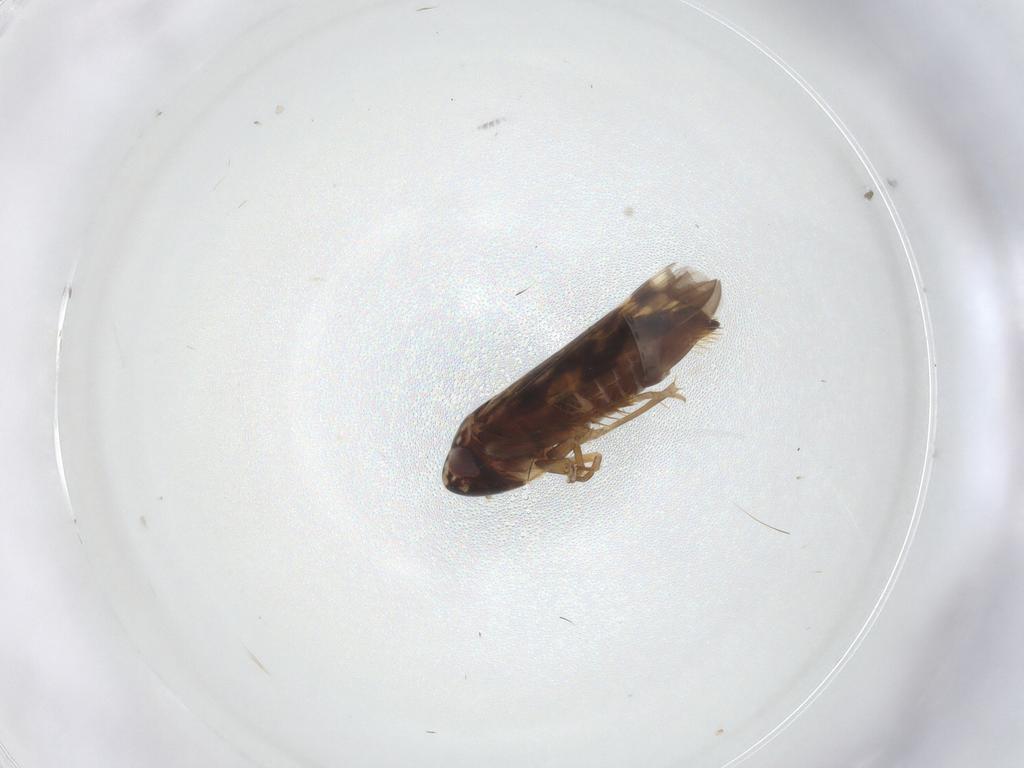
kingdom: Animalia
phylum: Arthropoda
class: Insecta
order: Hemiptera
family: Cicadellidae
